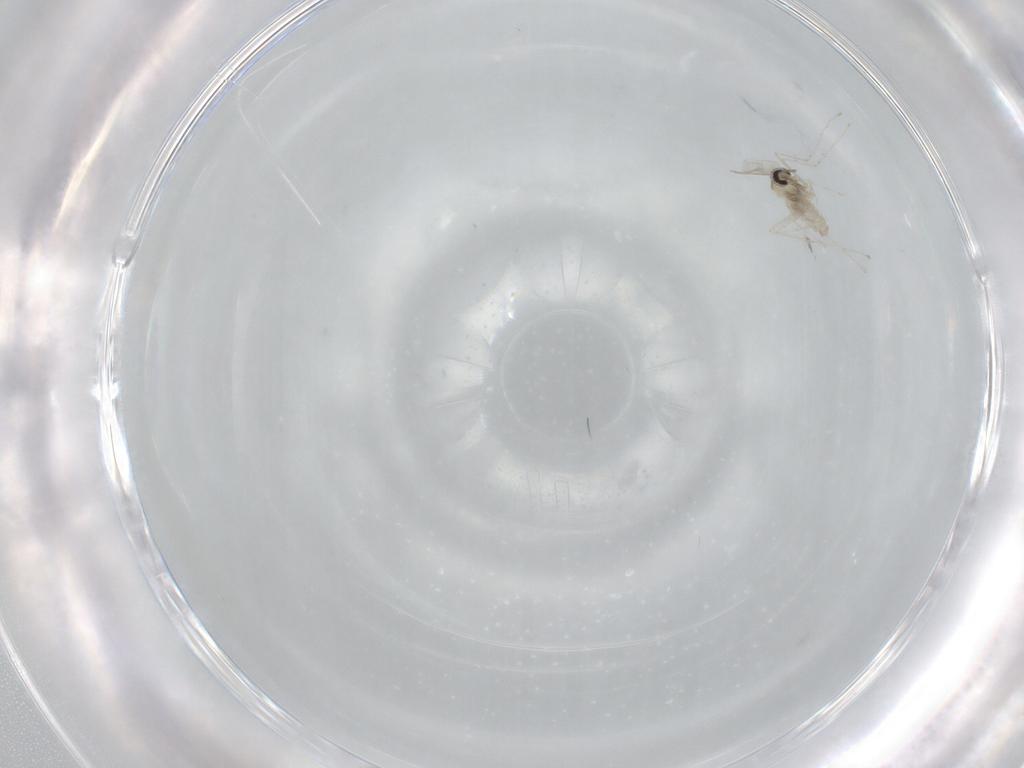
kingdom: Animalia
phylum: Arthropoda
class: Insecta
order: Diptera
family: Cecidomyiidae
